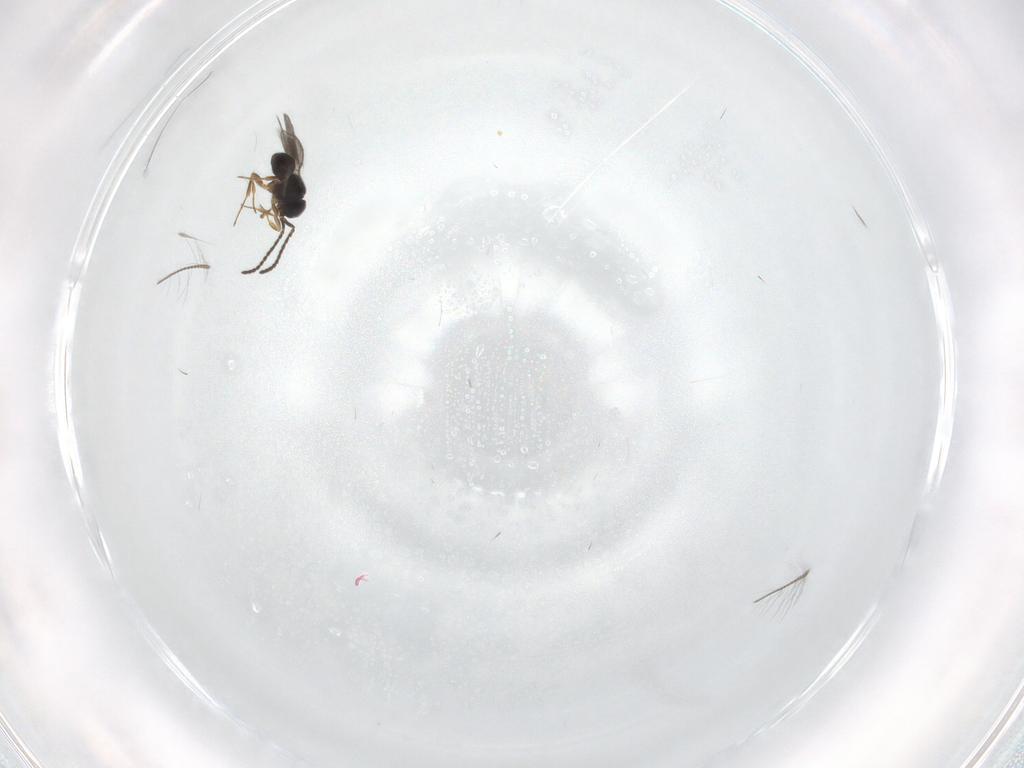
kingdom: Animalia
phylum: Arthropoda
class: Insecta
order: Hymenoptera
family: Scelionidae
